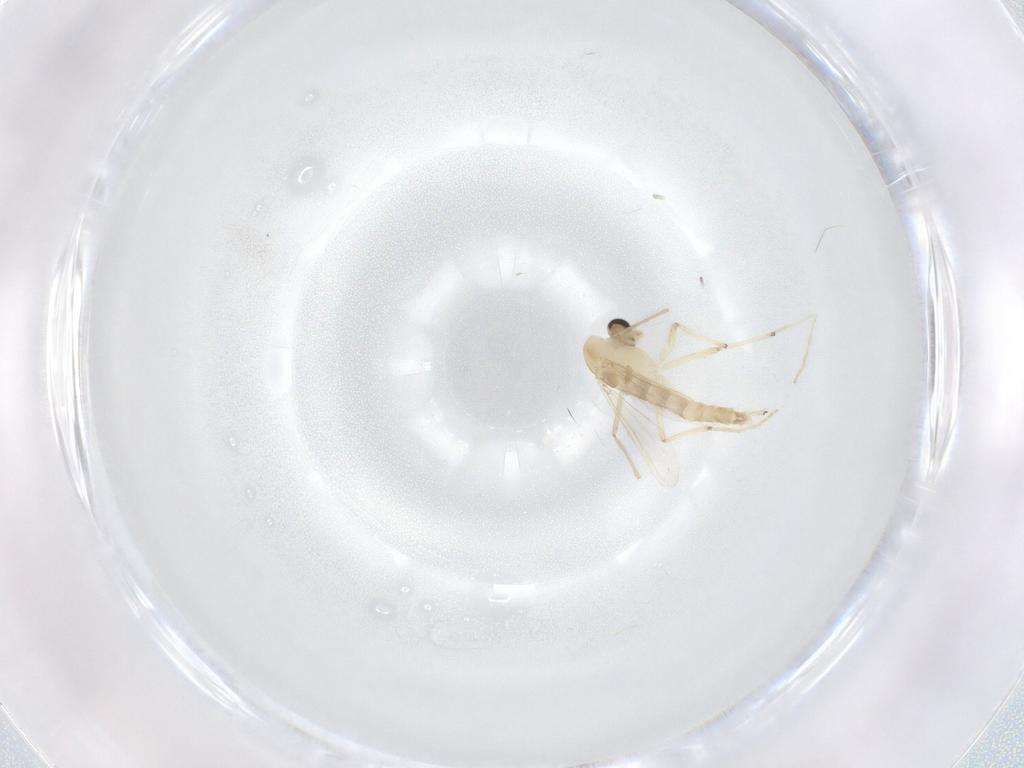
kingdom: Animalia
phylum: Arthropoda
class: Insecta
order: Diptera
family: Chironomidae
